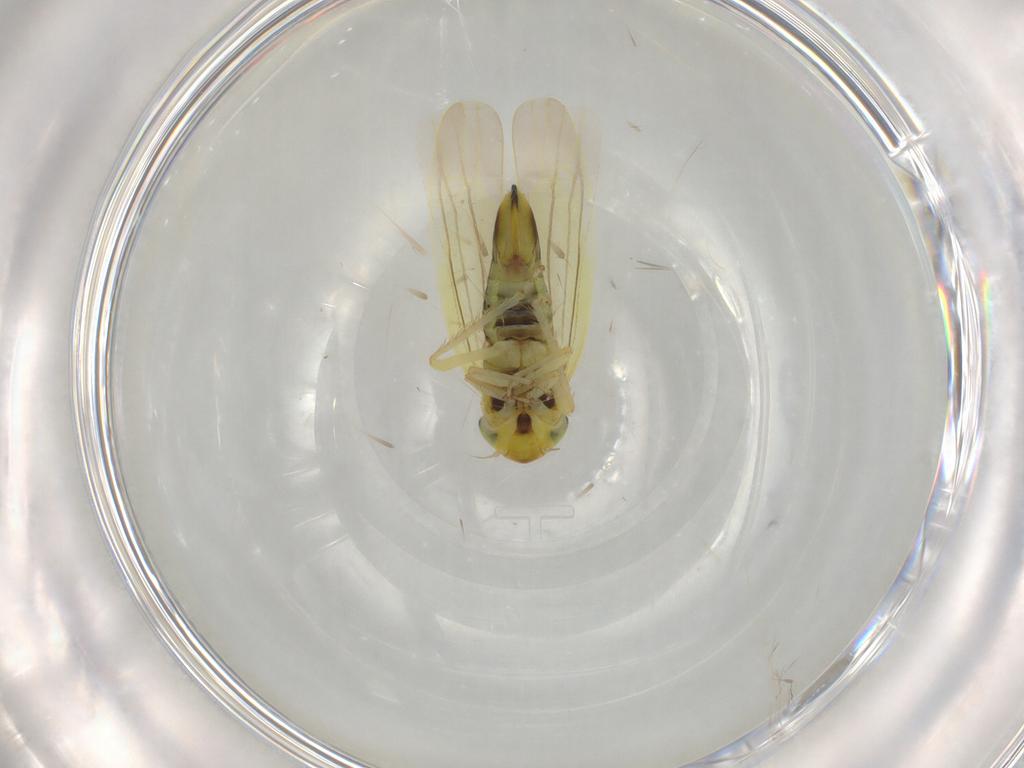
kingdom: Animalia
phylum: Arthropoda
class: Insecta
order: Hemiptera
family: Cicadellidae
